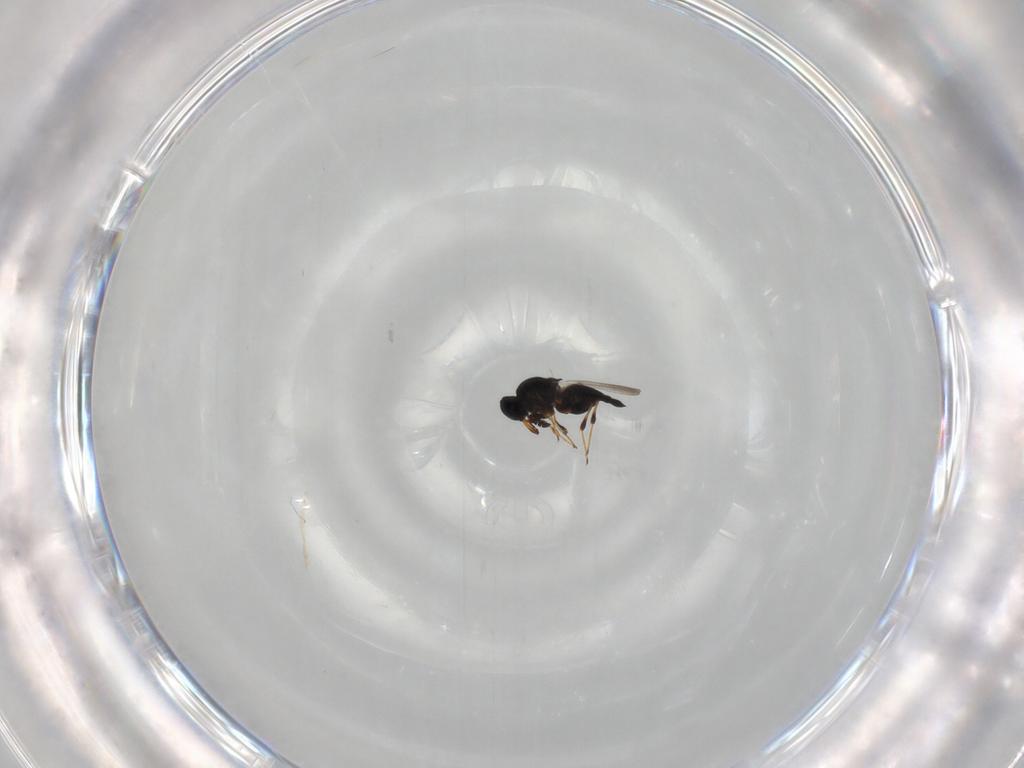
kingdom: Animalia
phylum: Arthropoda
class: Insecta
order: Hymenoptera
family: Platygastridae
